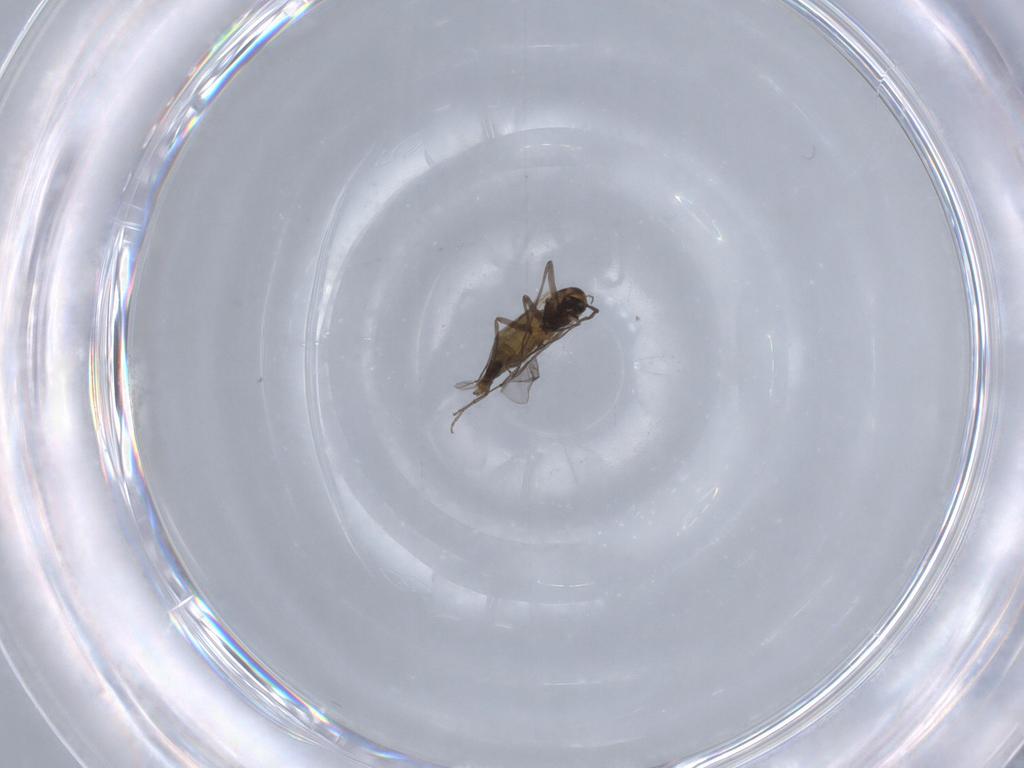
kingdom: Animalia
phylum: Arthropoda
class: Insecta
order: Diptera
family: Chironomidae
